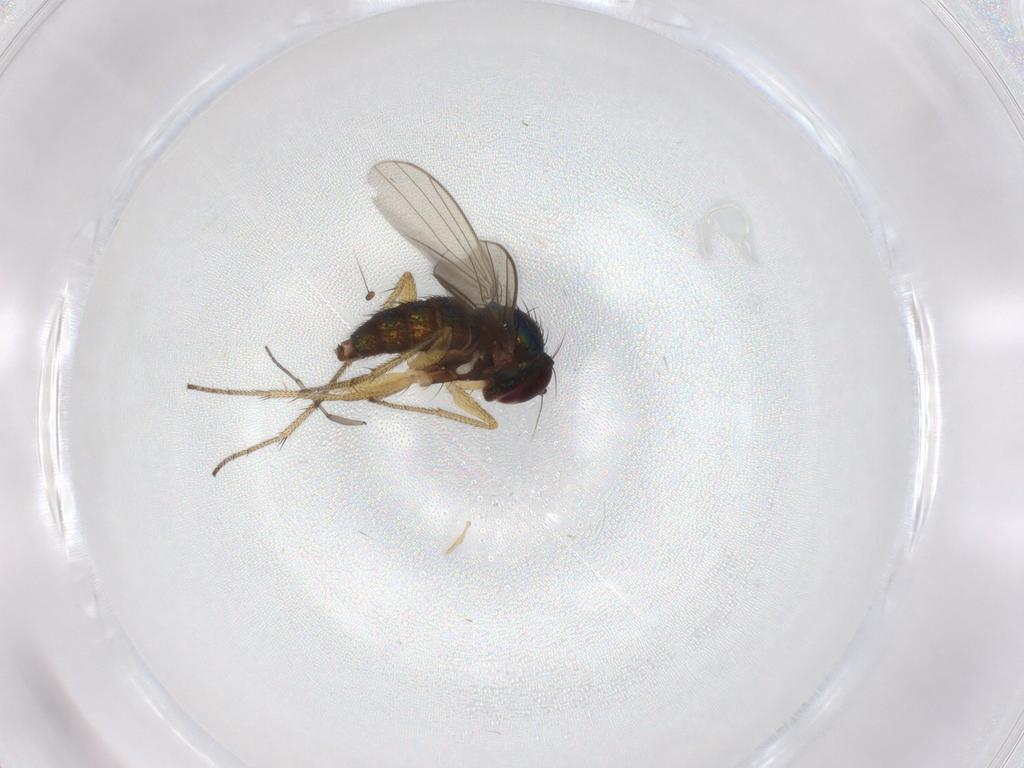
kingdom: Animalia
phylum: Arthropoda
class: Insecta
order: Diptera
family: Dolichopodidae
